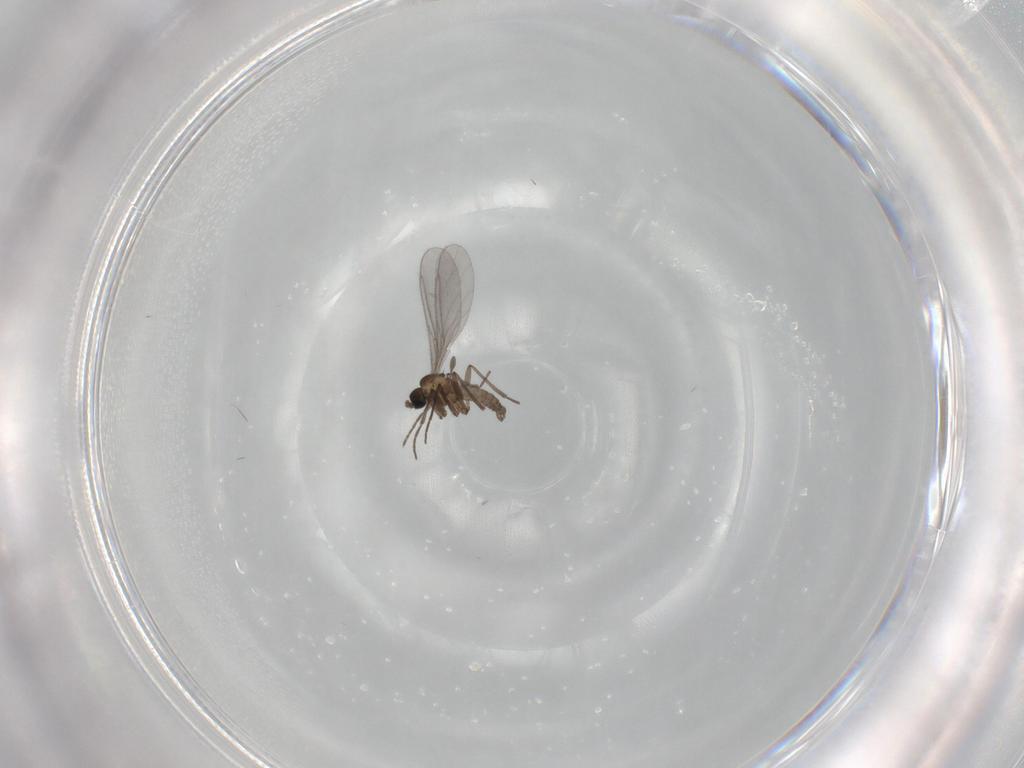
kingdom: Animalia
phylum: Arthropoda
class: Insecta
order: Diptera
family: Sciaridae
